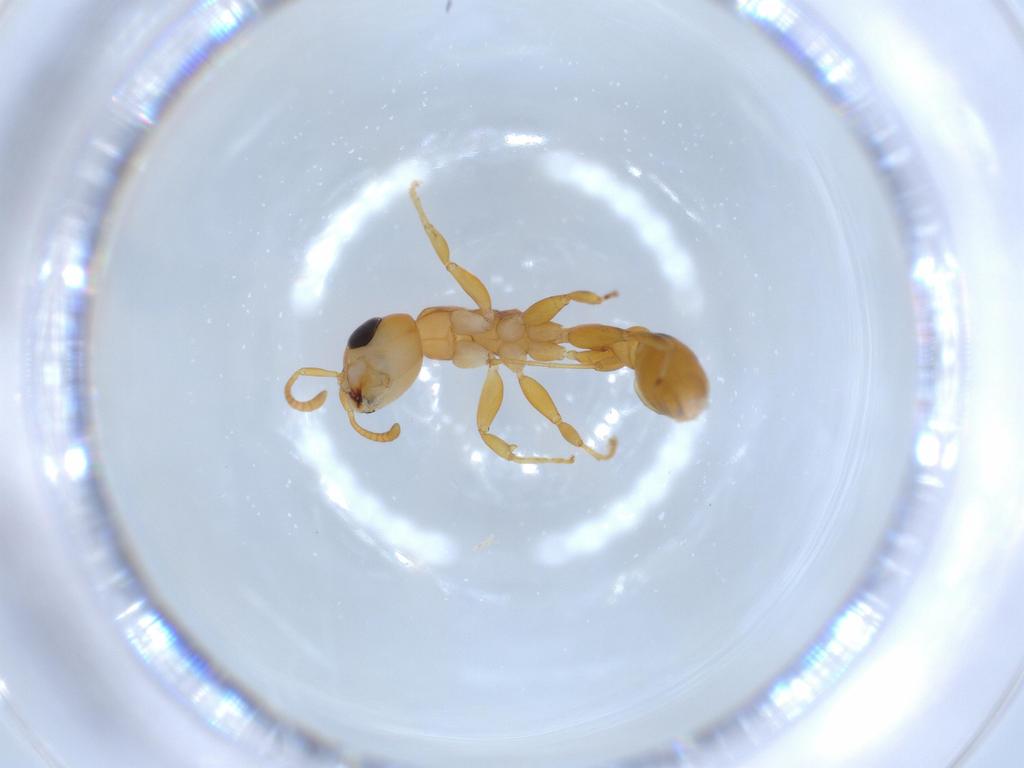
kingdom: Animalia
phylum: Arthropoda
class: Insecta
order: Hymenoptera
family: Formicidae
